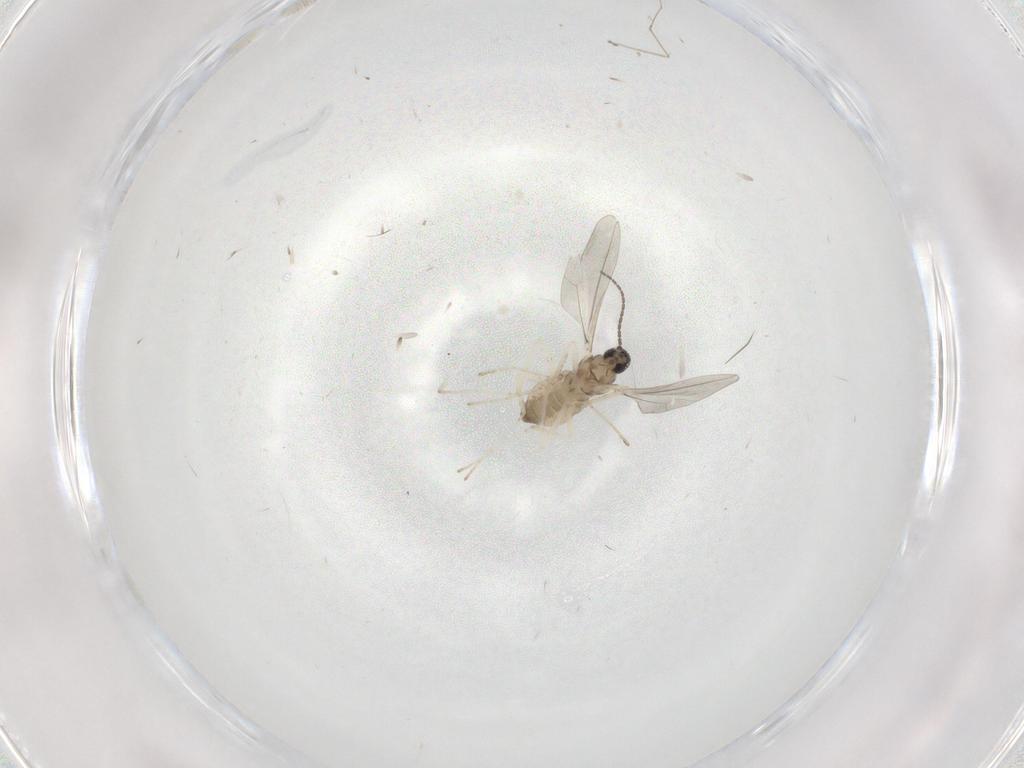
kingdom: Animalia
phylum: Arthropoda
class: Insecta
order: Diptera
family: Cecidomyiidae
